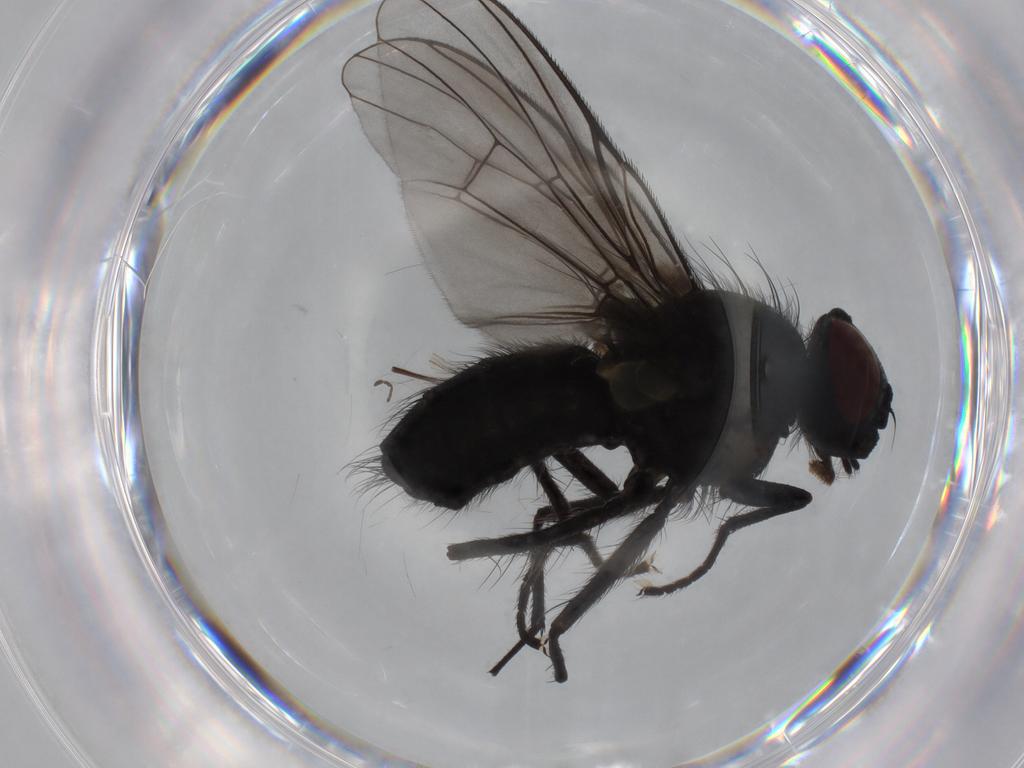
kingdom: Animalia
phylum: Arthropoda
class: Insecta
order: Diptera
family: Muscidae
